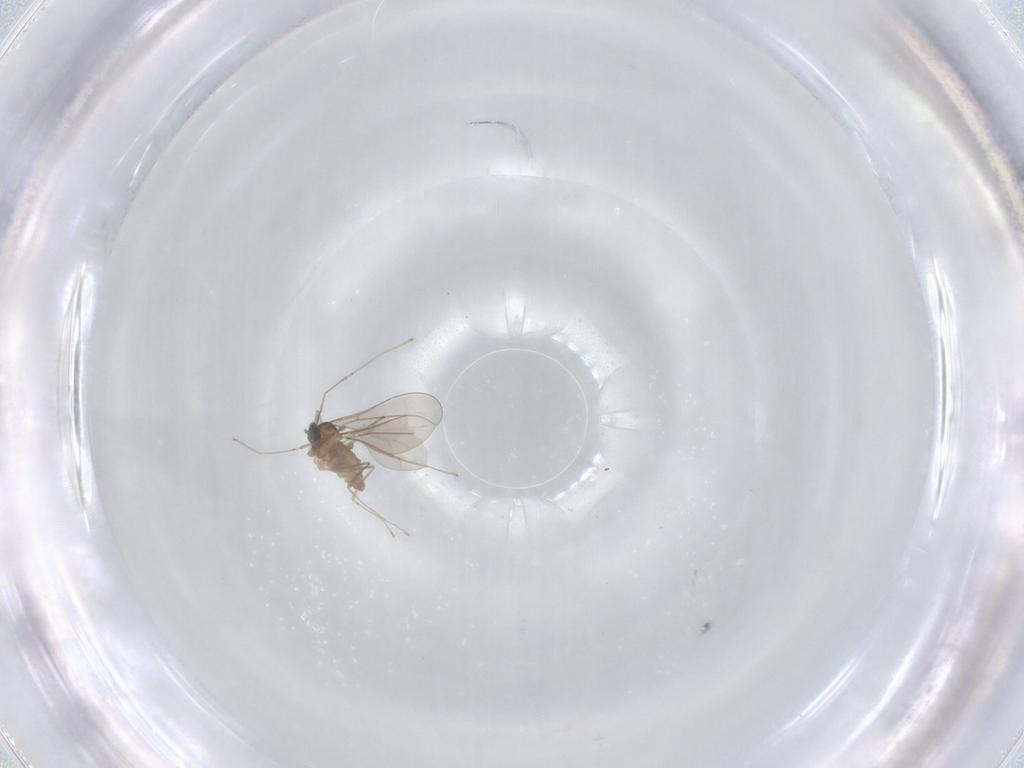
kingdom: Animalia
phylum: Arthropoda
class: Insecta
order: Diptera
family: Cecidomyiidae
